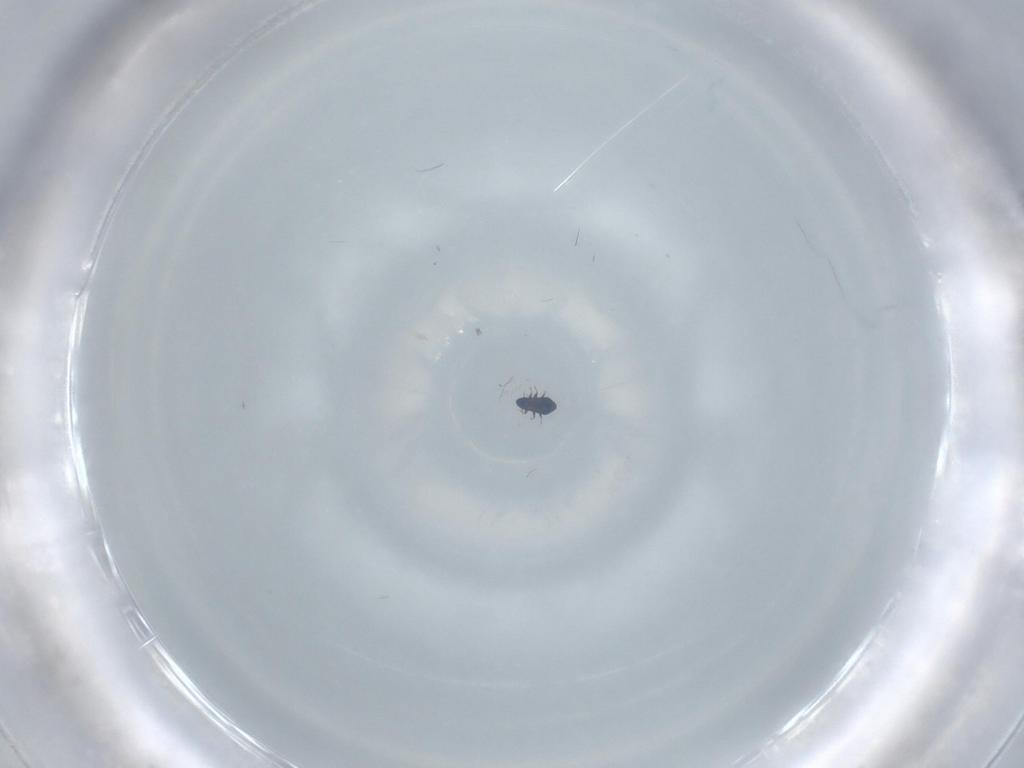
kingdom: Animalia
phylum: Arthropoda
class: Insecta
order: Coleoptera
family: Ripiphoridae
